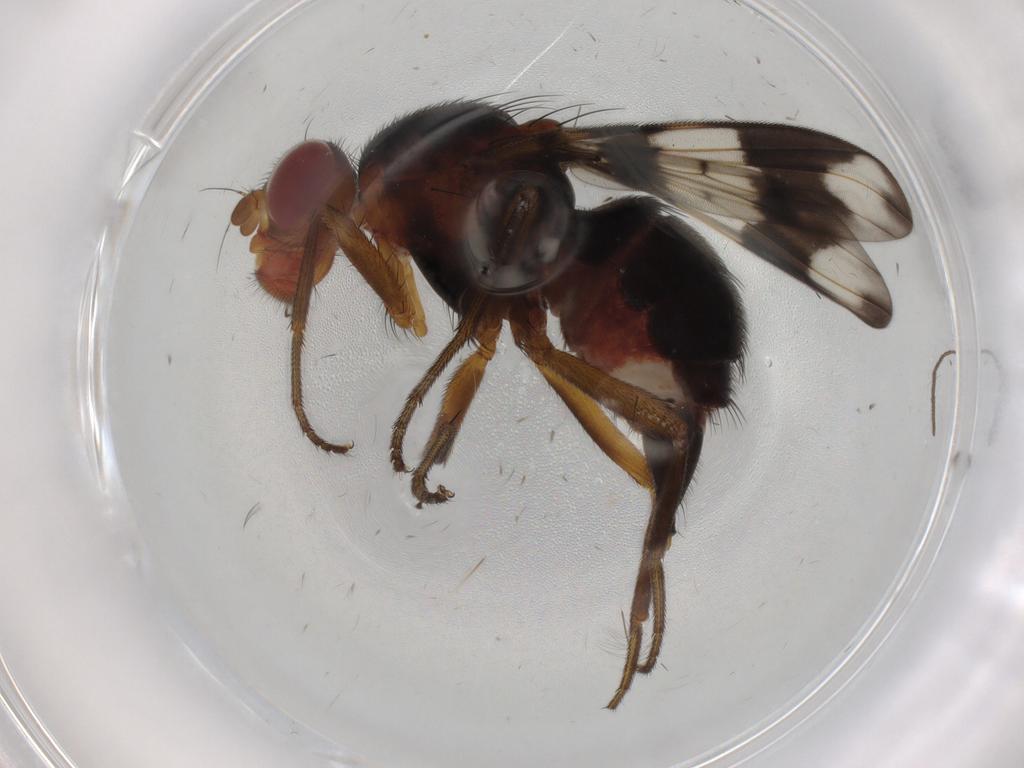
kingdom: Animalia
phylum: Arthropoda
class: Insecta
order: Diptera
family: Richardiidae
